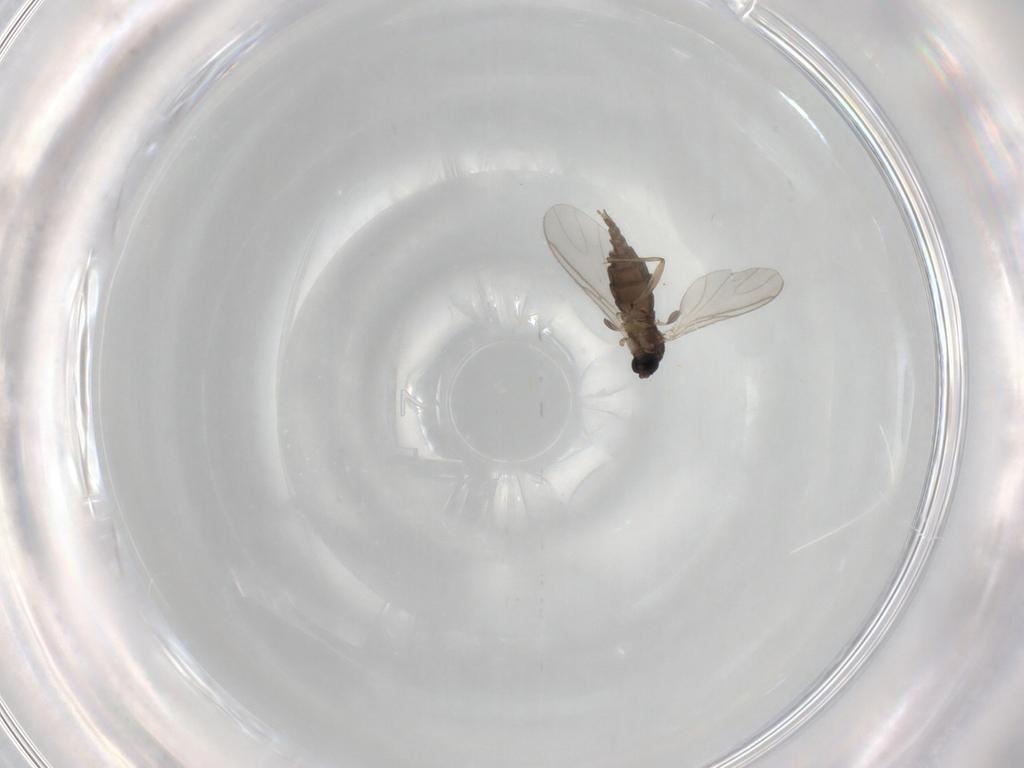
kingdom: Animalia
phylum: Arthropoda
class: Insecta
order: Diptera
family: Sciaridae
